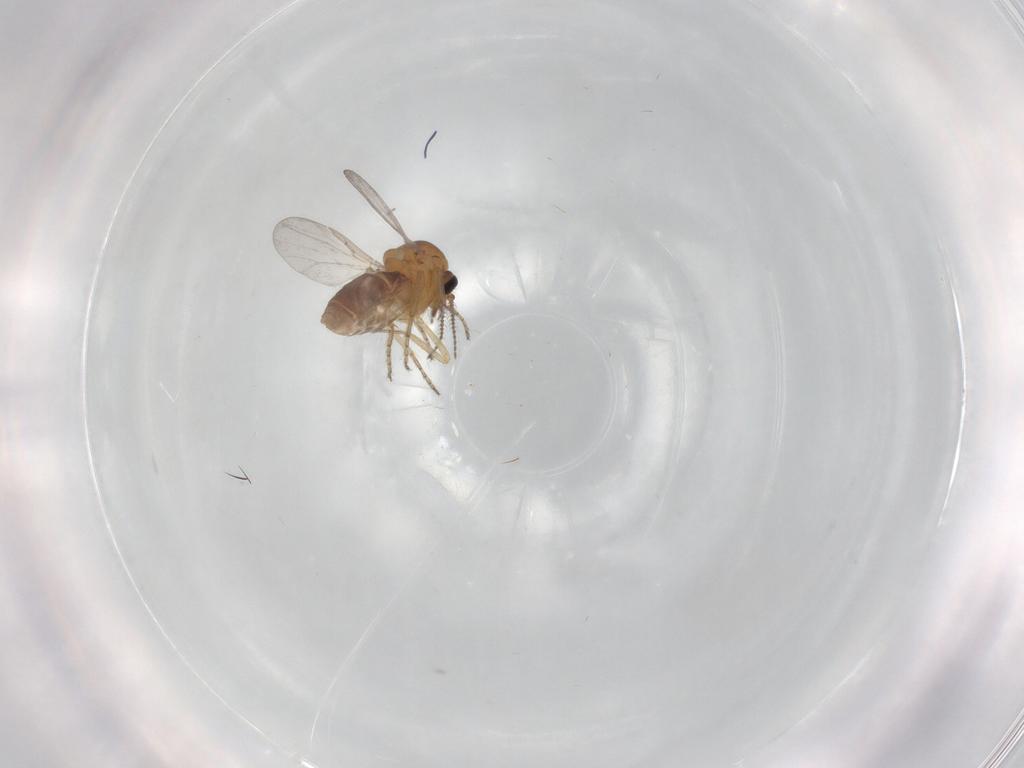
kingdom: Animalia
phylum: Arthropoda
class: Insecta
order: Diptera
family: Ceratopogonidae
